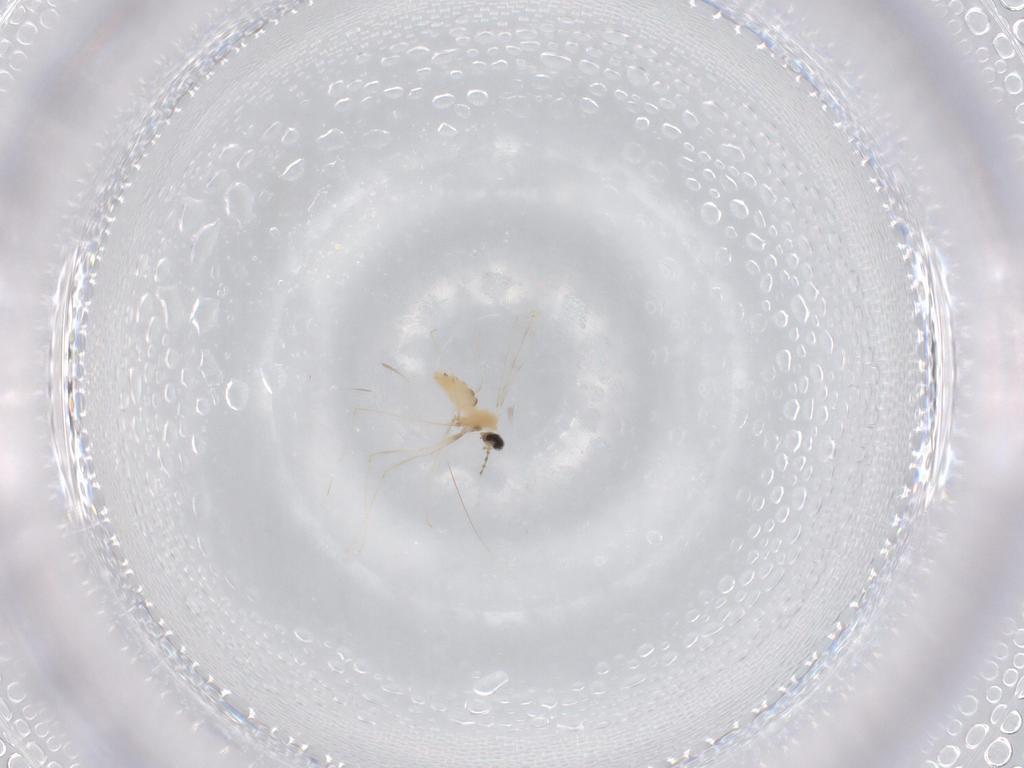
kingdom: Animalia
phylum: Arthropoda
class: Insecta
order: Diptera
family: Cecidomyiidae
